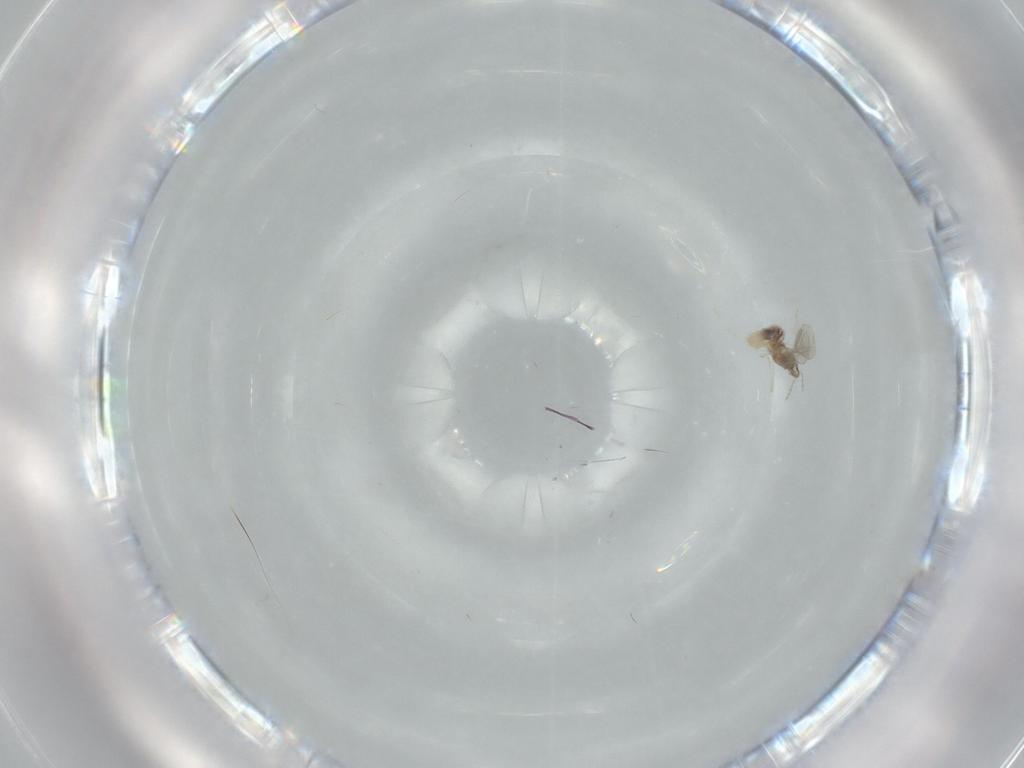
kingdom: Animalia
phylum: Arthropoda
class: Insecta
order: Diptera
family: Cecidomyiidae
